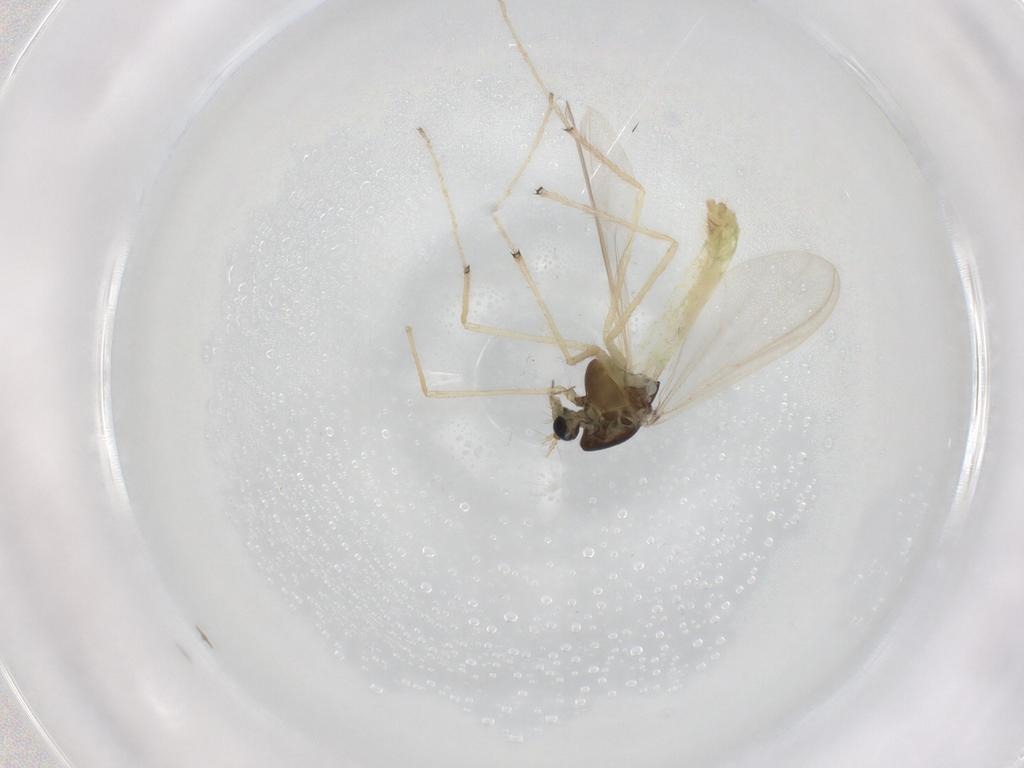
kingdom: Animalia
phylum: Arthropoda
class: Insecta
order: Diptera
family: Chironomidae
